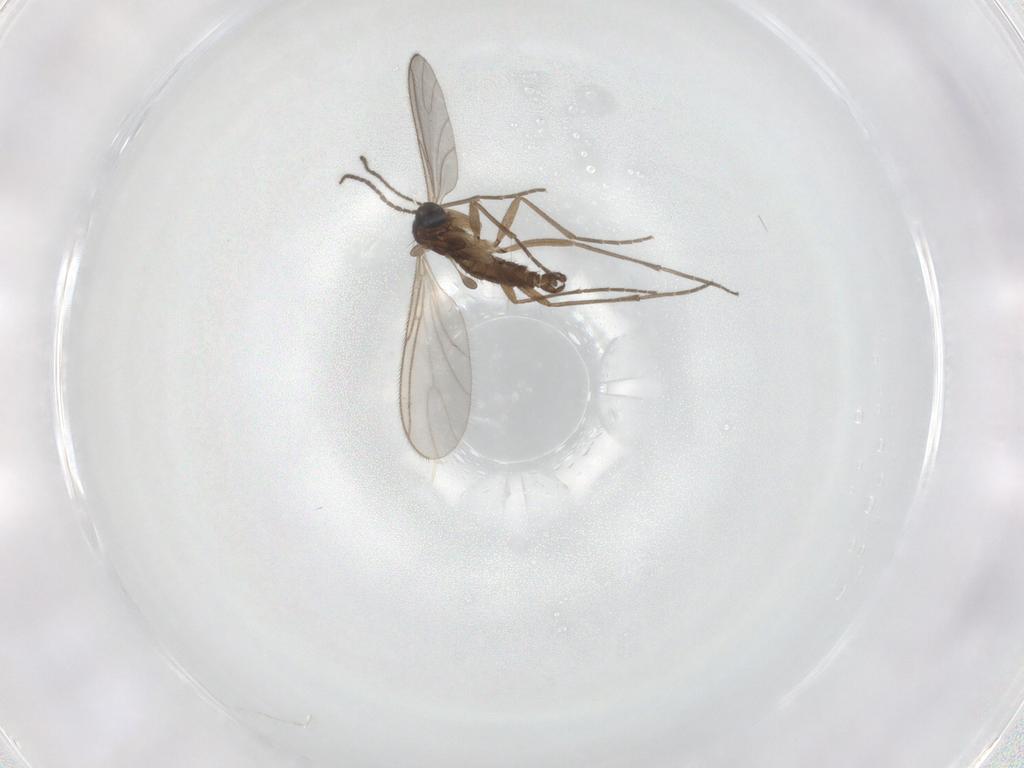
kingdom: Animalia
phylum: Arthropoda
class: Insecta
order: Diptera
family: Sciaridae
